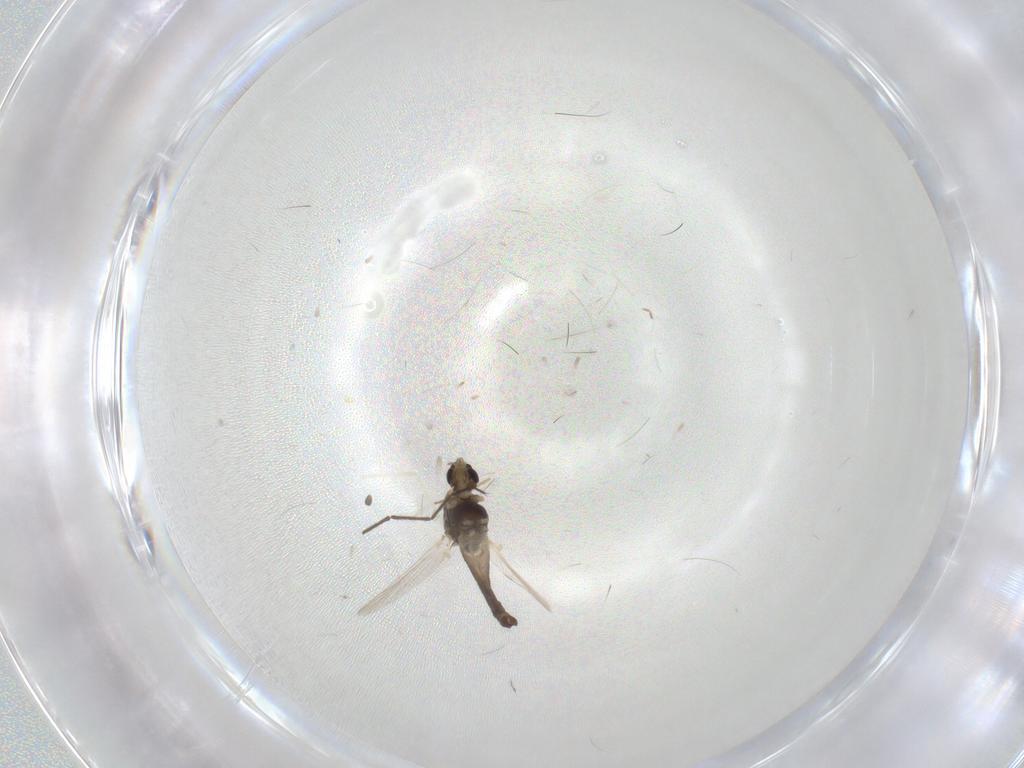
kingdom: Animalia
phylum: Arthropoda
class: Insecta
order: Diptera
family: Chironomidae
